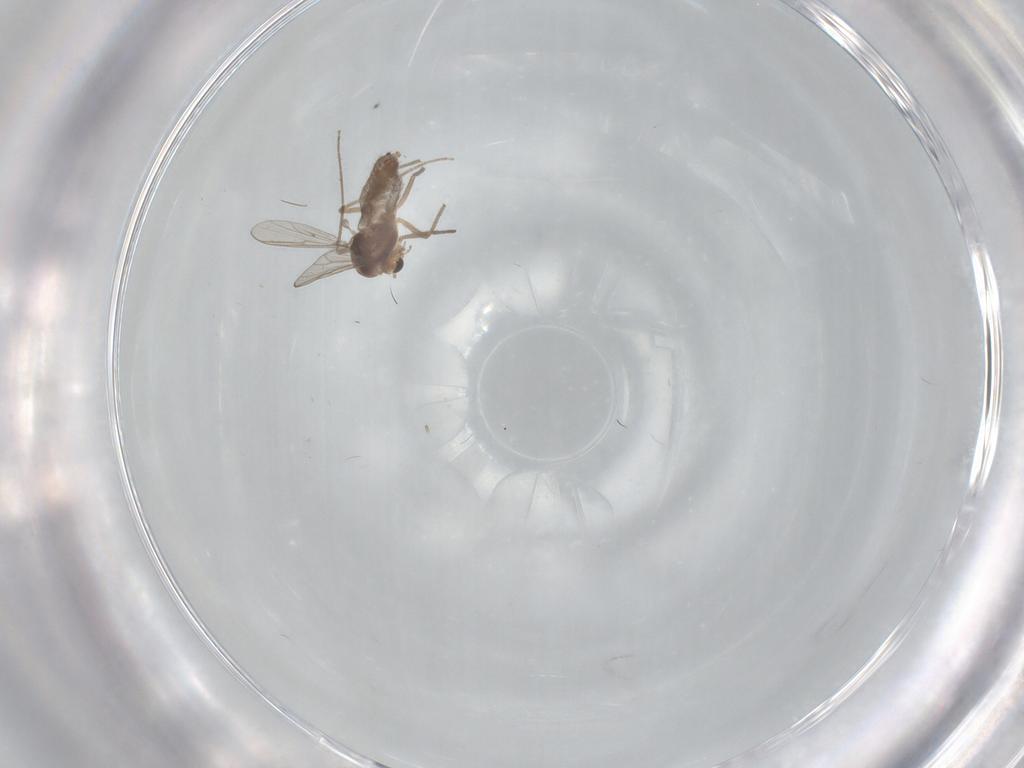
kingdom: Animalia
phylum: Arthropoda
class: Insecta
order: Diptera
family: Chironomidae
